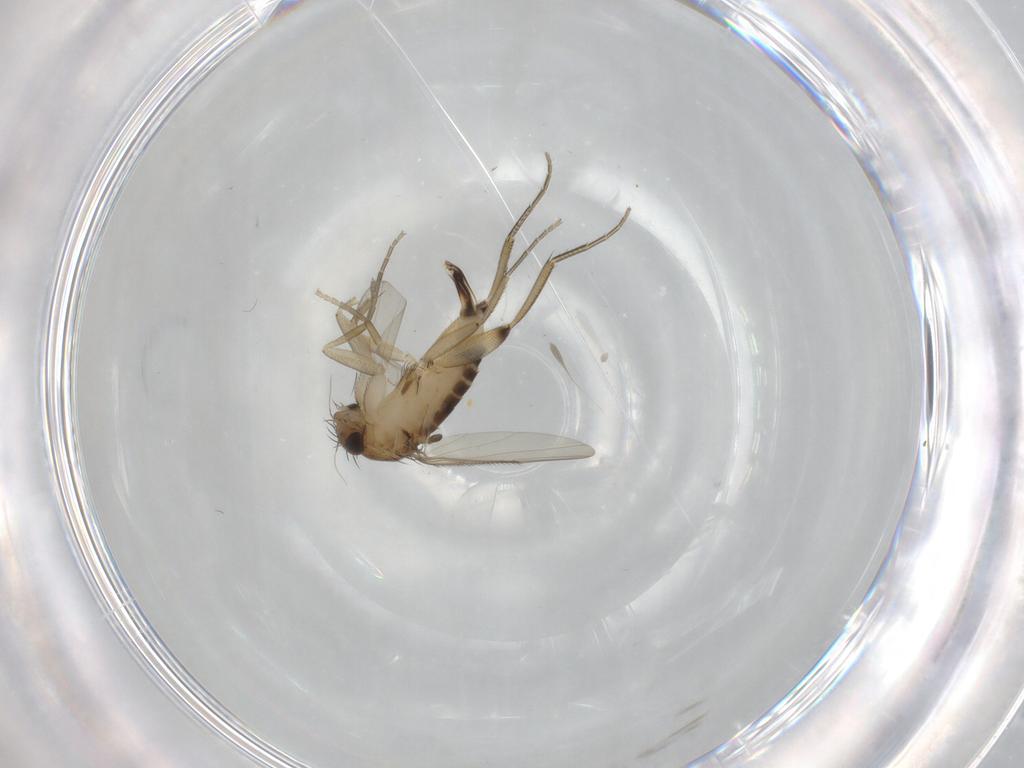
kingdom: Animalia
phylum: Arthropoda
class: Insecta
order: Diptera
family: Phoridae
